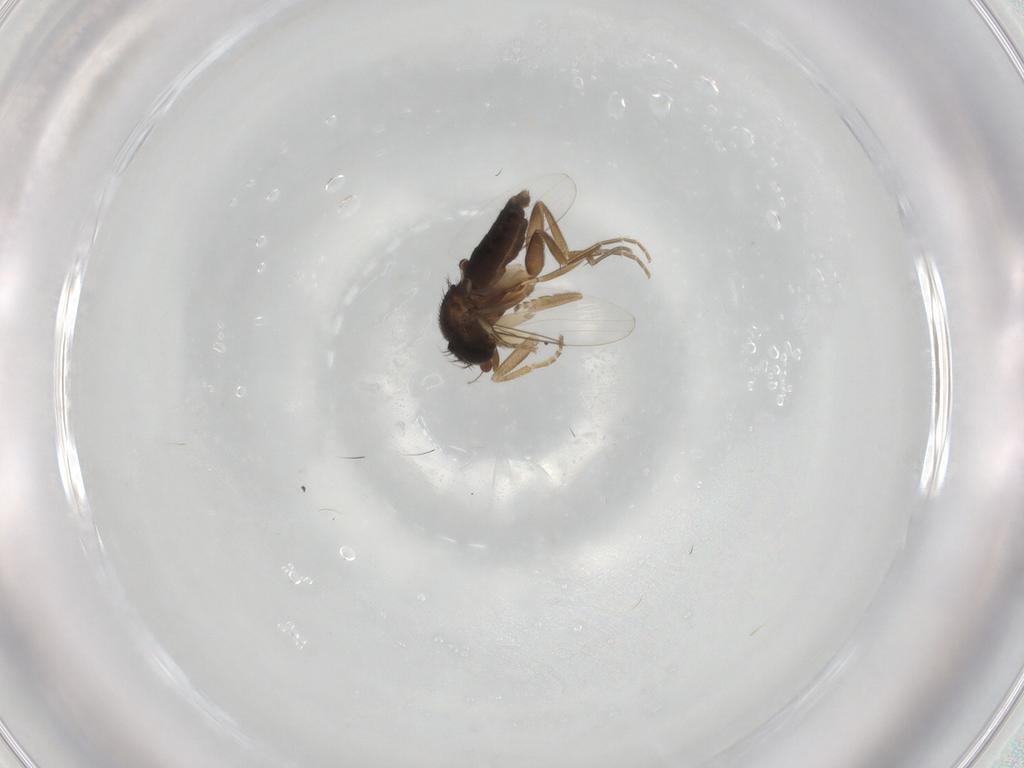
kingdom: Animalia
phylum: Arthropoda
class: Insecta
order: Diptera
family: Phoridae
